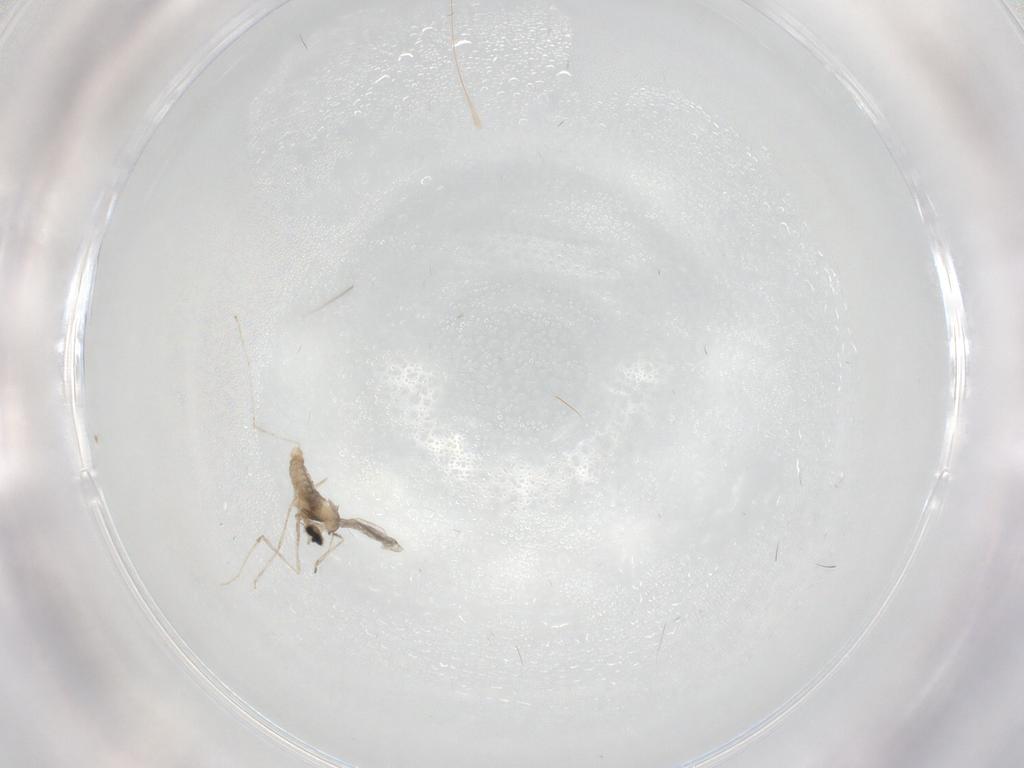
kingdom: Animalia
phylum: Arthropoda
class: Insecta
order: Diptera
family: Cecidomyiidae
